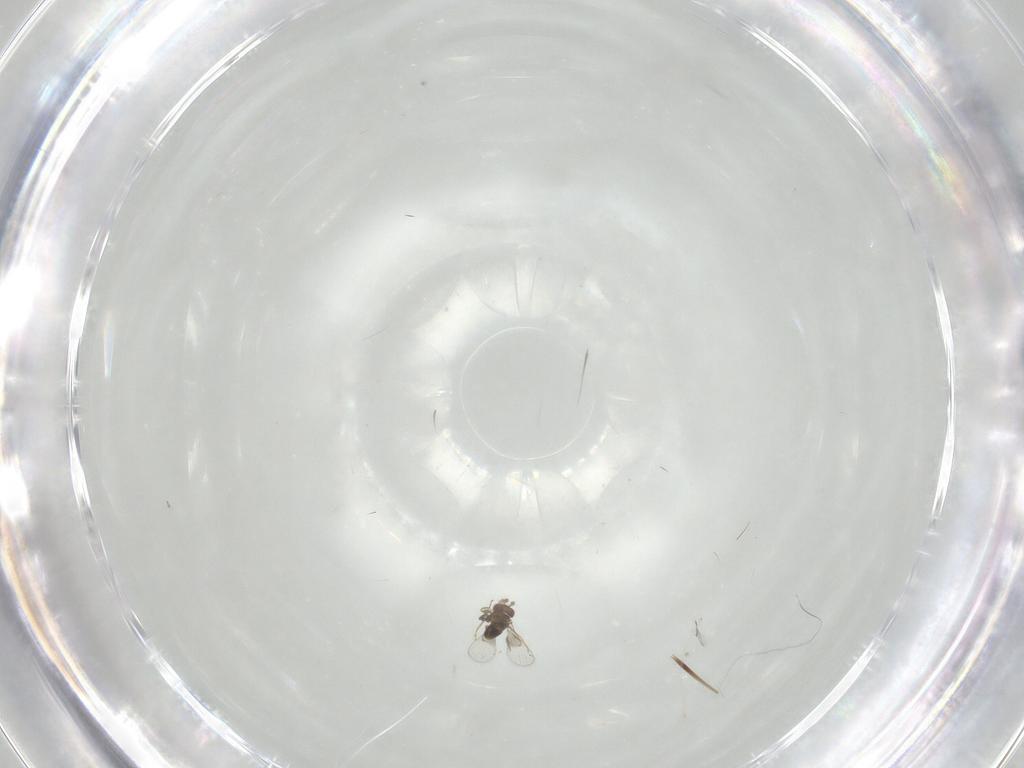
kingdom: Animalia
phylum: Arthropoda
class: Insecta
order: Hymenoptera
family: Trichogrammatidae
